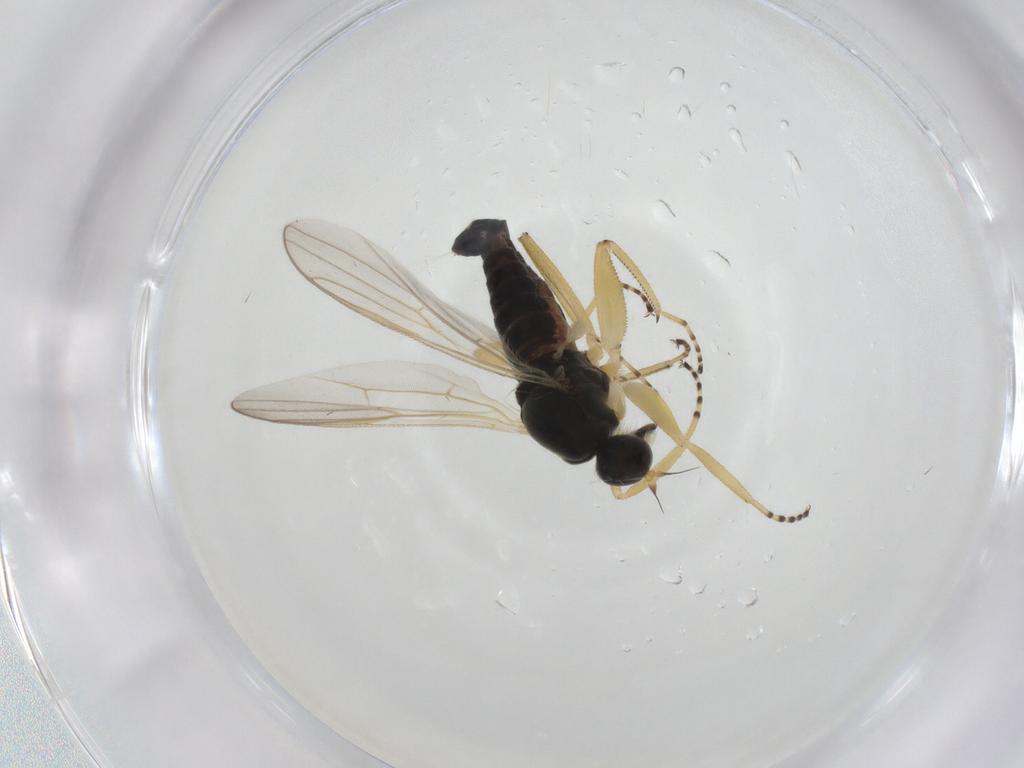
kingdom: Animalia
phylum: Arthropoda
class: Insecta
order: Diptera
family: Hybotidae
